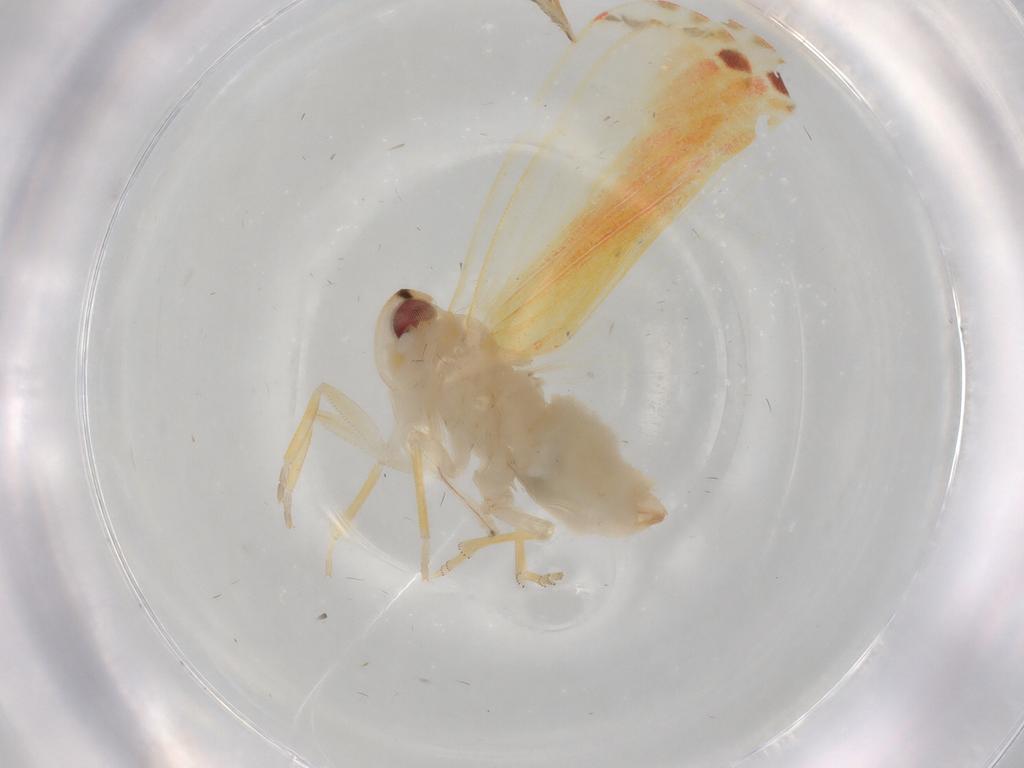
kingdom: Animalia
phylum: Arthropoda
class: Insecta
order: Hemiptera
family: Derbidae
